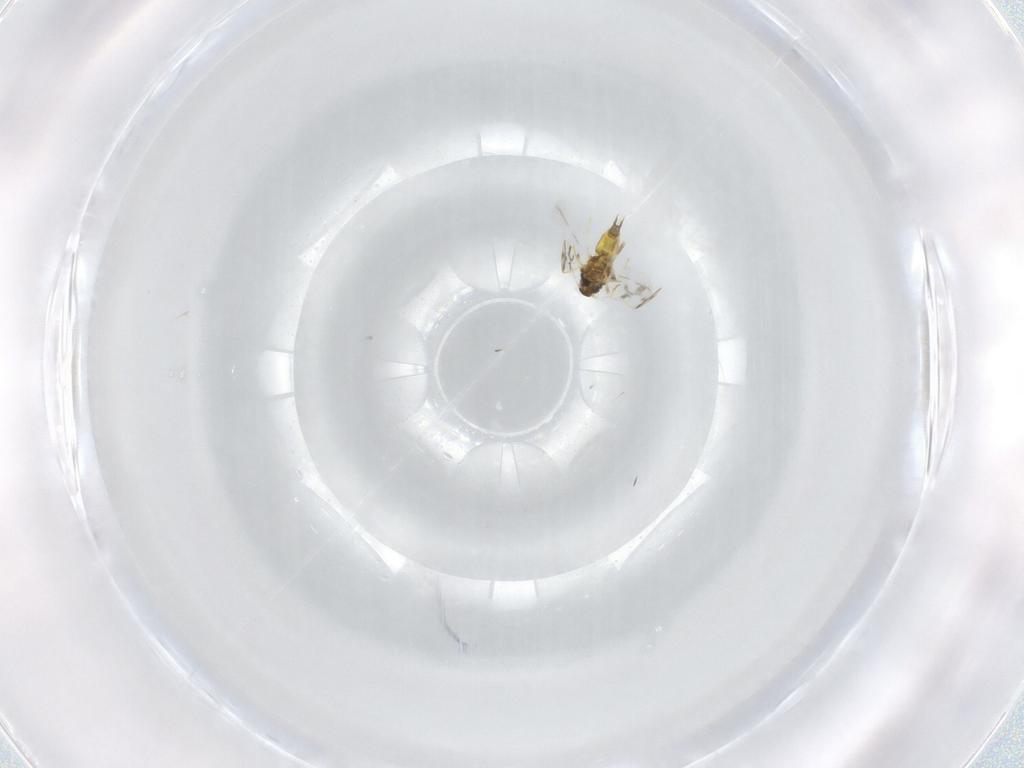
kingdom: Animalia
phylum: Arthropoda
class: Insecta
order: Hemiptera
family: Aleyrodidae
